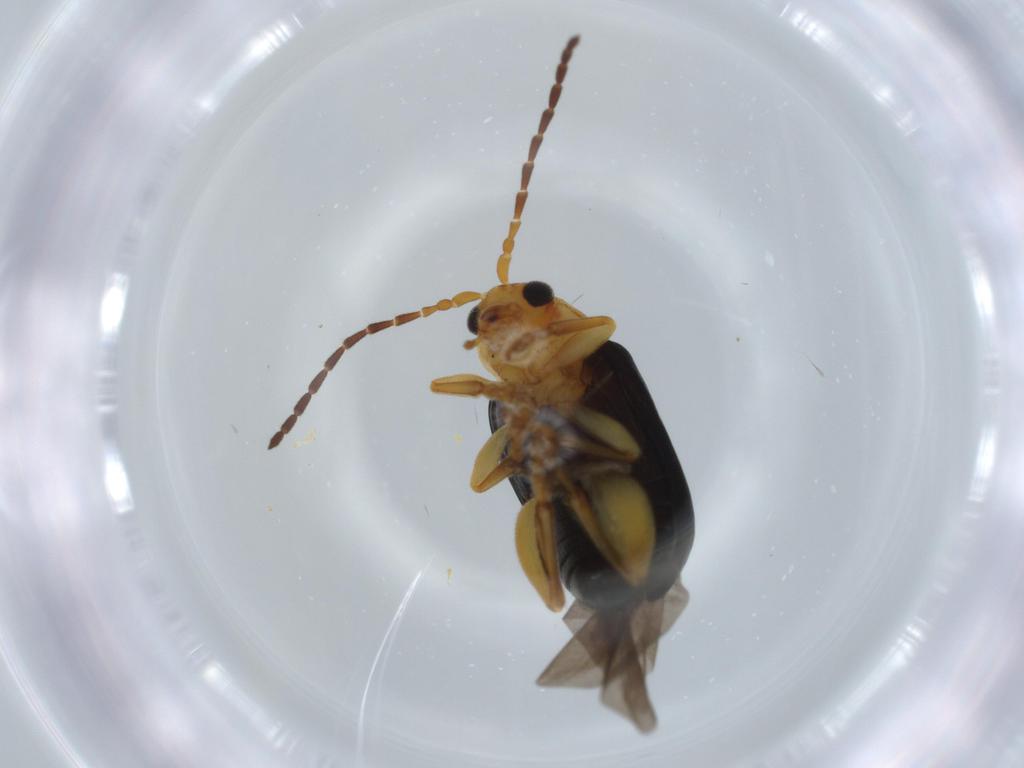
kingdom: Animalia
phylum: Arthropoda
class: Insecta
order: Coleoptera
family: Chrysomelidae
